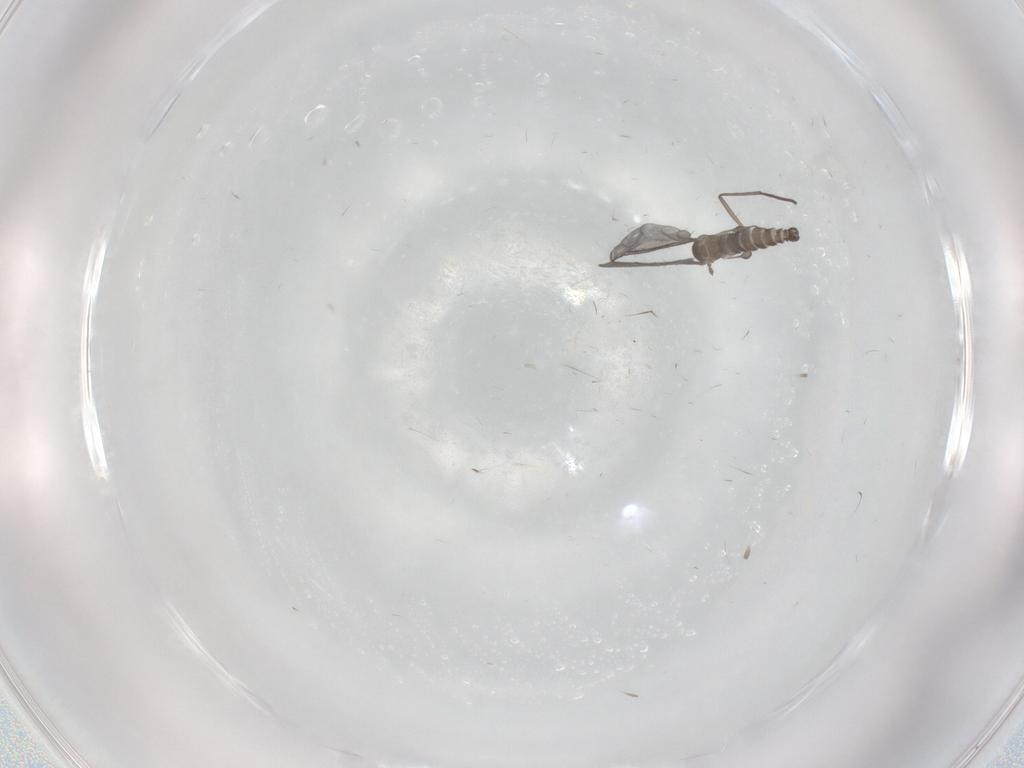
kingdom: Animalia
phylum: Arthropoda
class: Insecta
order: Diptera
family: Sciaridae
